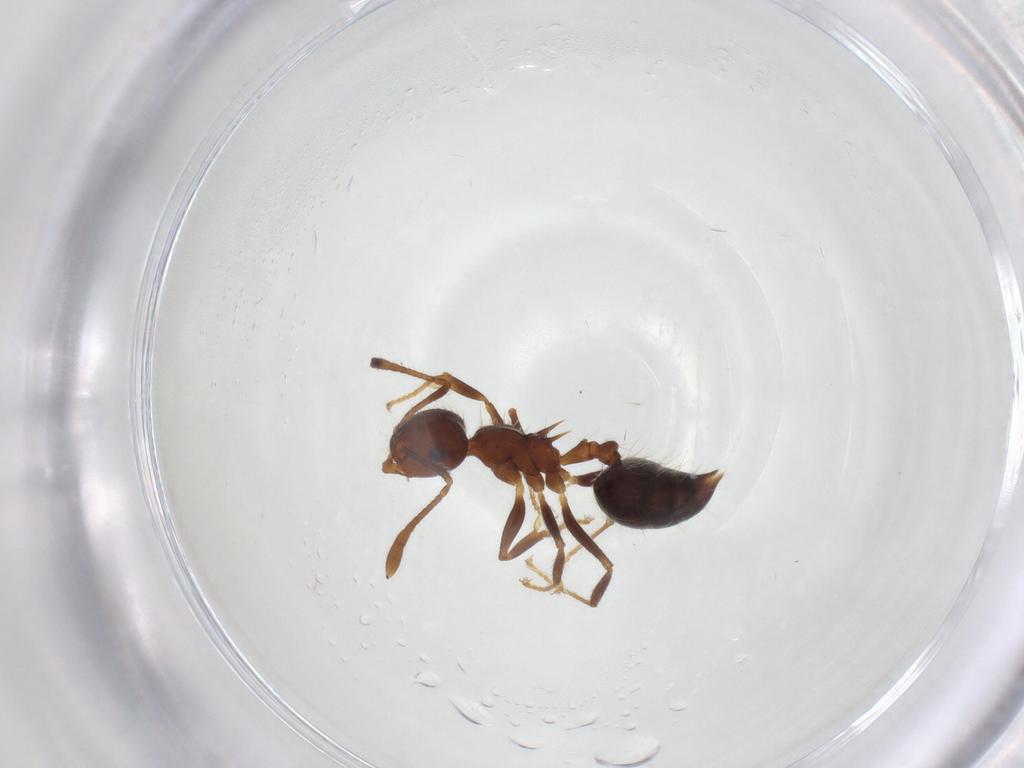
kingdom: Animalia
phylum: Arthropoda
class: Insecta
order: Hymenoptera
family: Formicidae
